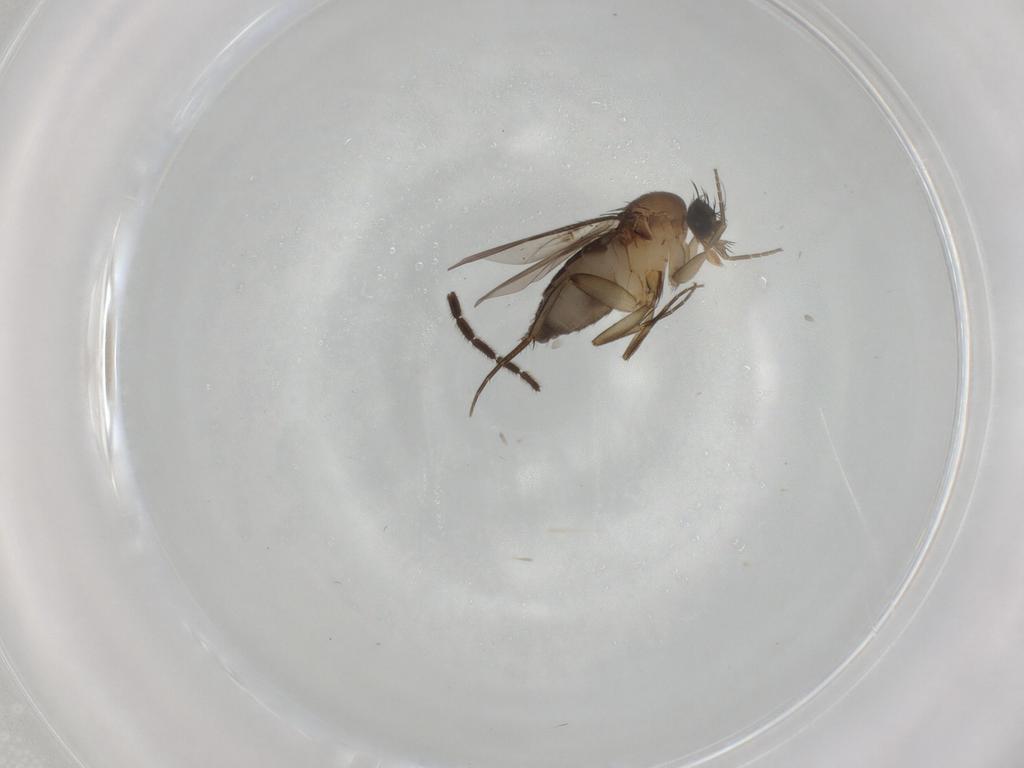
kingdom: Animalia
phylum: Arthropoda
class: Insecta
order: Diptera
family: Phoridae
